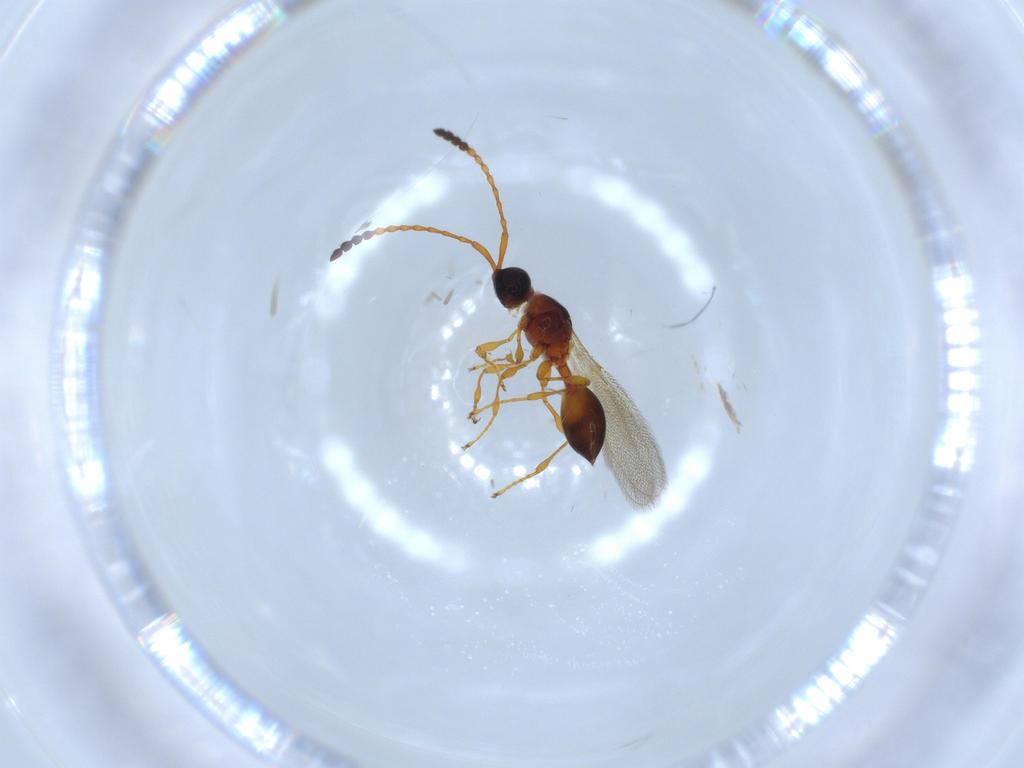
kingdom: Animalia
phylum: Arthropoda
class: Insecta
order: Hymenoptera
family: Diapriidae
